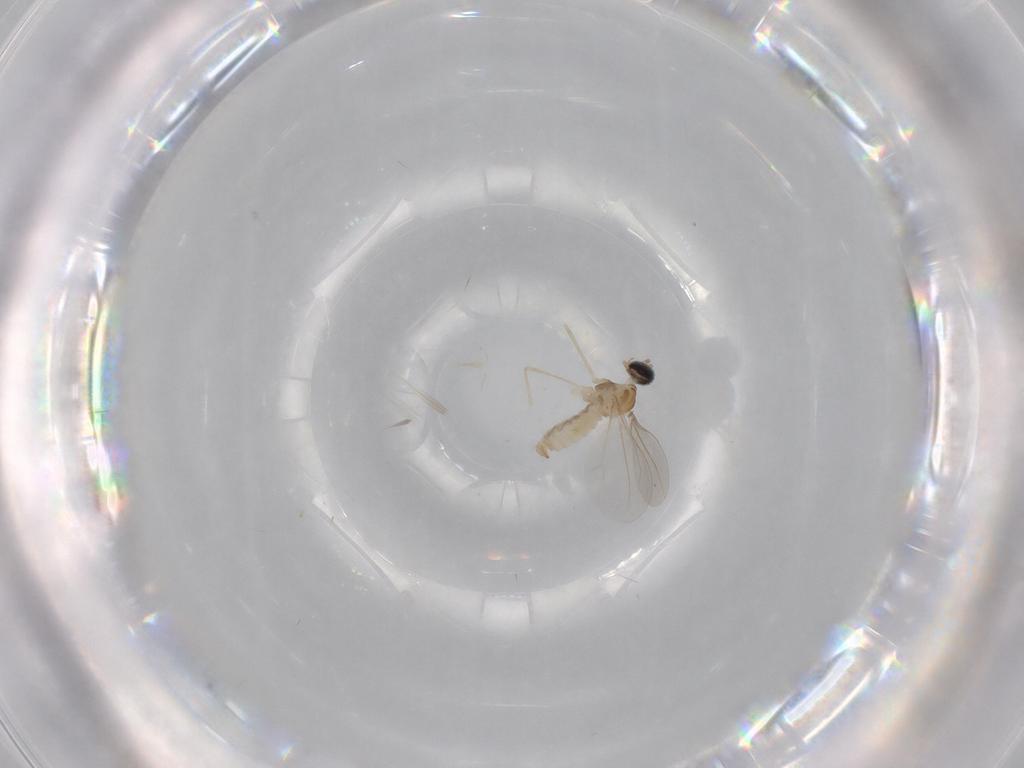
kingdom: Animalia
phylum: Arthropoda
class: Insecta
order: Diptera
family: Cecidomyiidae
